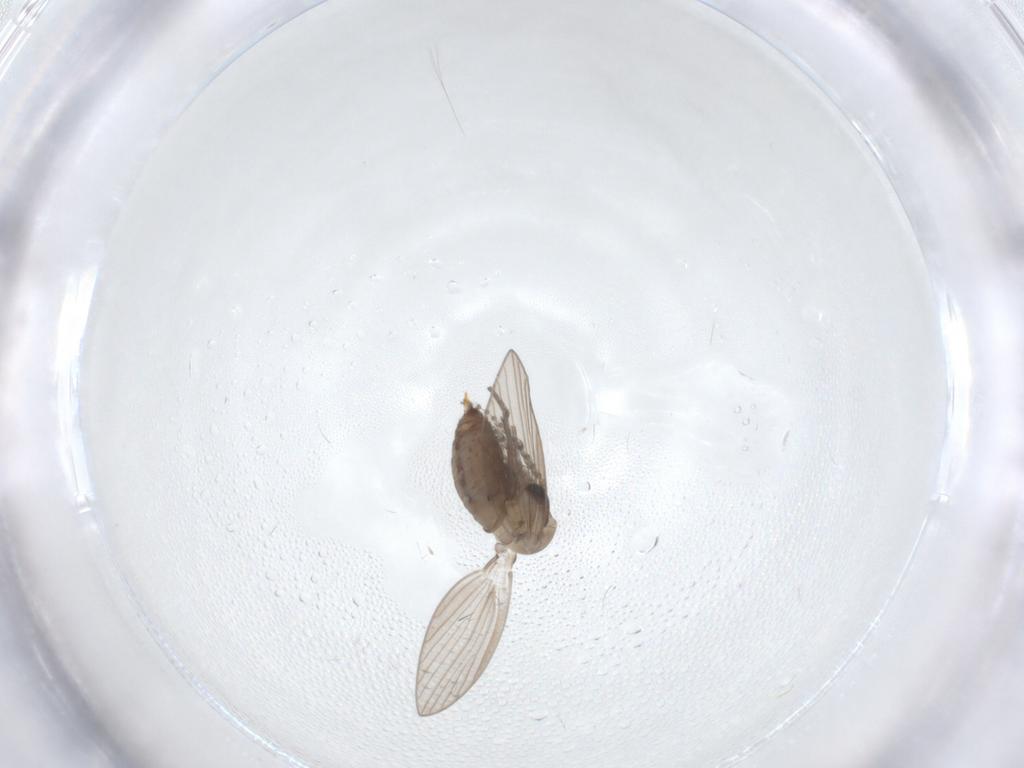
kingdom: Animalia
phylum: Arthropoda
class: Insecta
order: Diptera
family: Psychodidae
